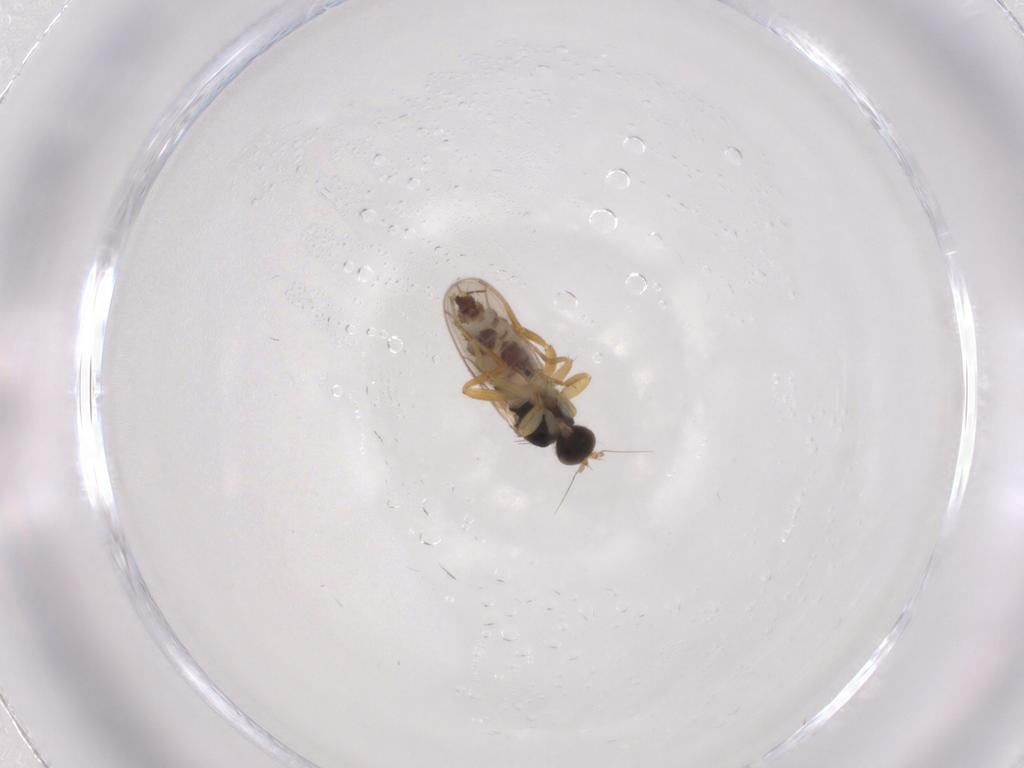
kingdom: Animalia
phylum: Arthropoda
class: Insecta
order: Diptera
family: Hybotidae
